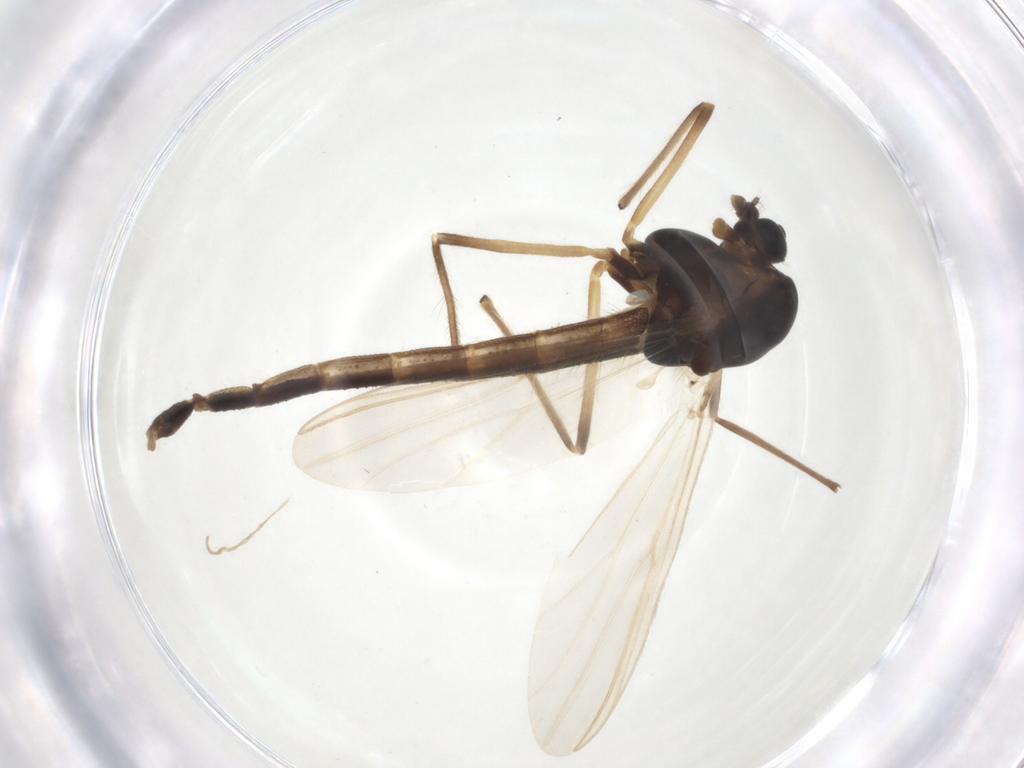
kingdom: Animalia
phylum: Arthropoda
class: Insecta
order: Diptera
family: Chironomidae
